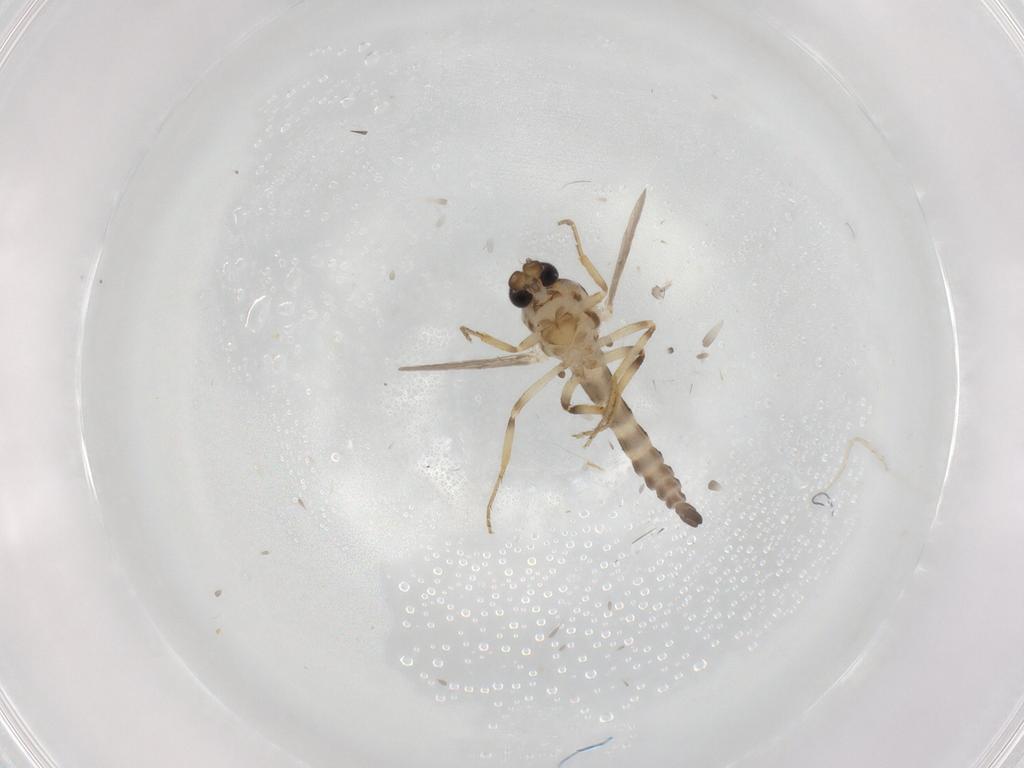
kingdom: Animalia
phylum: Arthropoda
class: Insecta
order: Diptera
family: Ceratopogonidae
